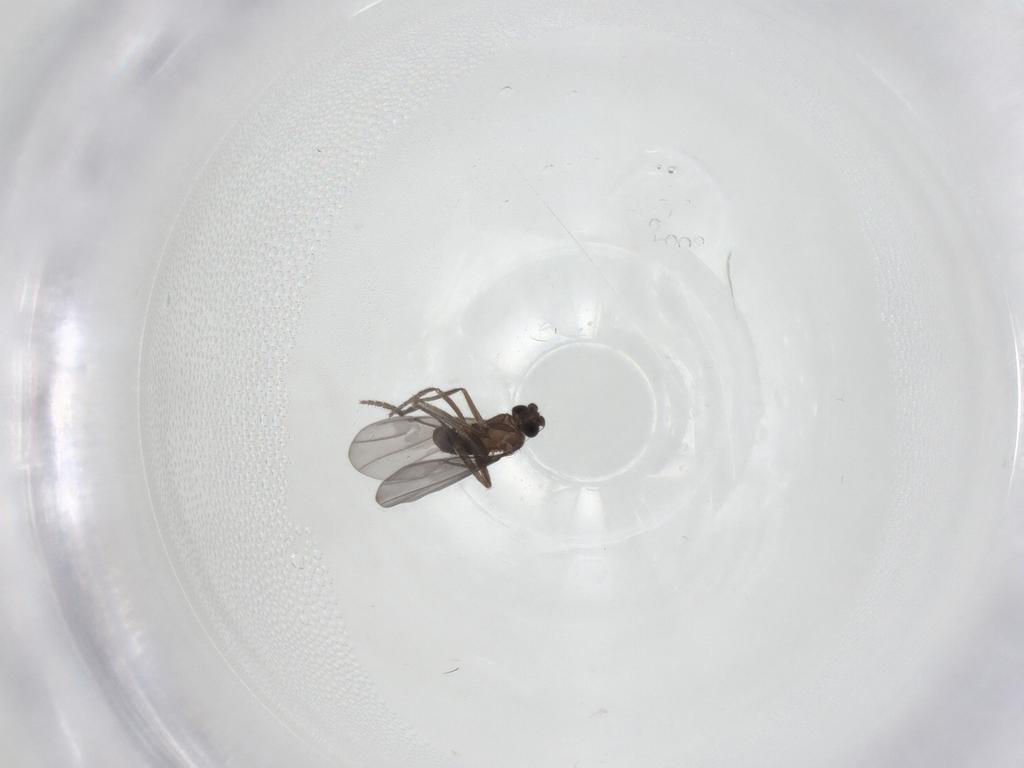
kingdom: Animalia
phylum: Arthropoda
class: Insecta
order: Diptera
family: Phoridae
